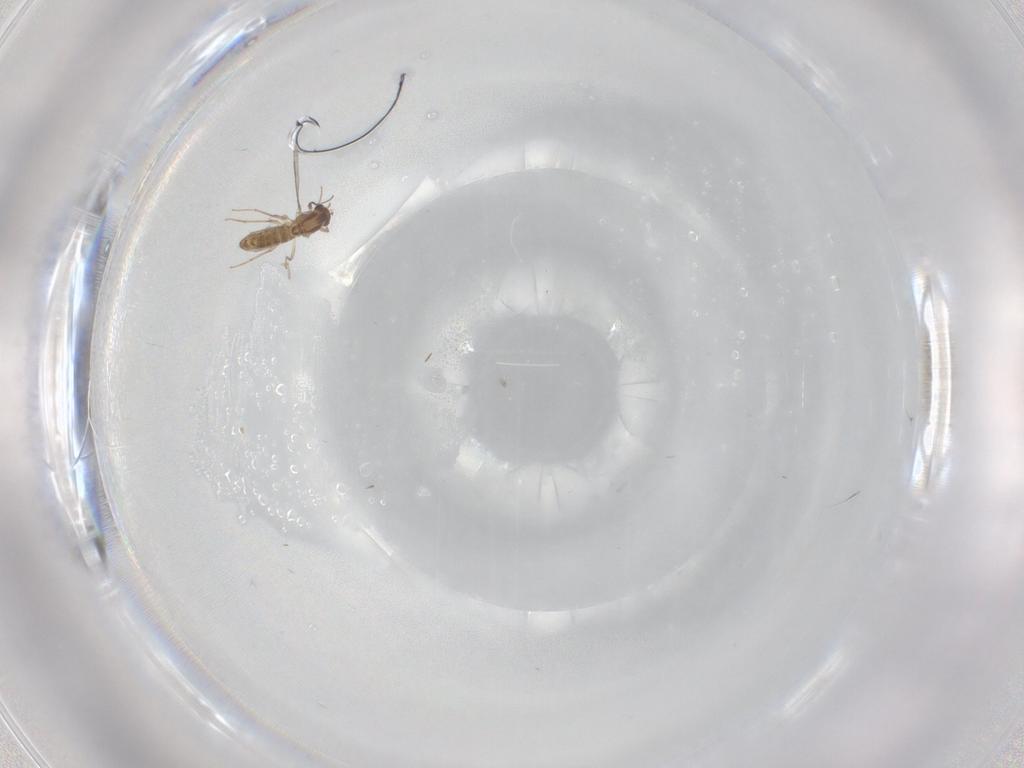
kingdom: Animalia
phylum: Arthropoda
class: Insecta
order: Diptera
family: Chironomidae
